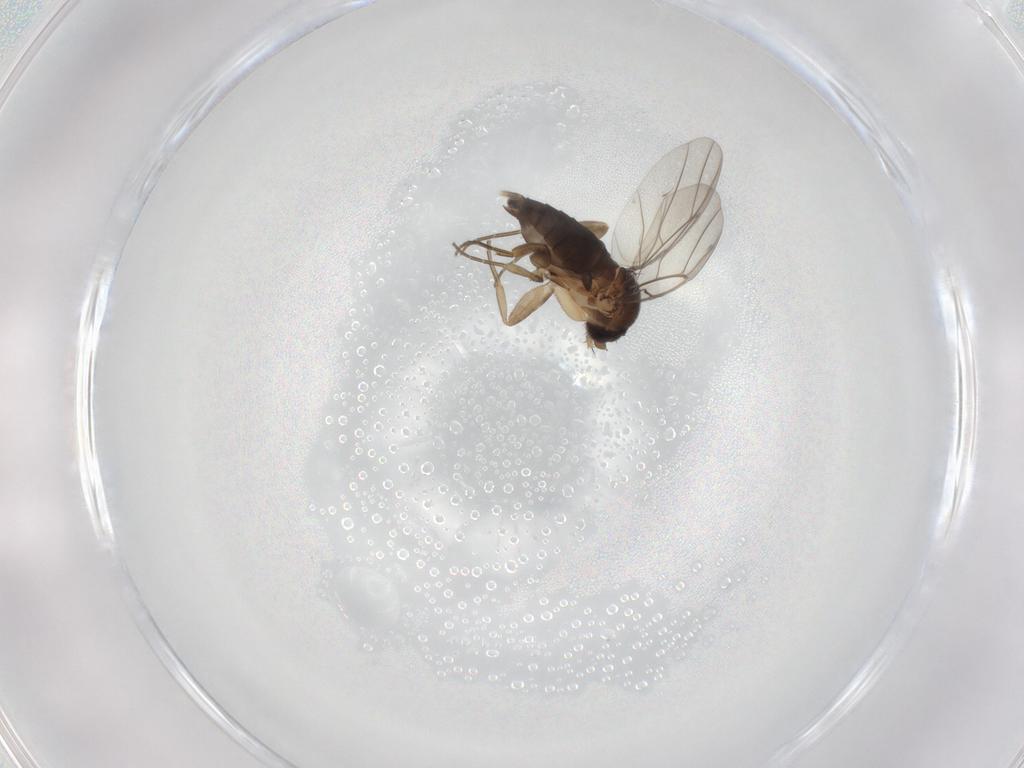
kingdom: Animalia
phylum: Arthropoda
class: Insecta
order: Diptera
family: Phoridae
